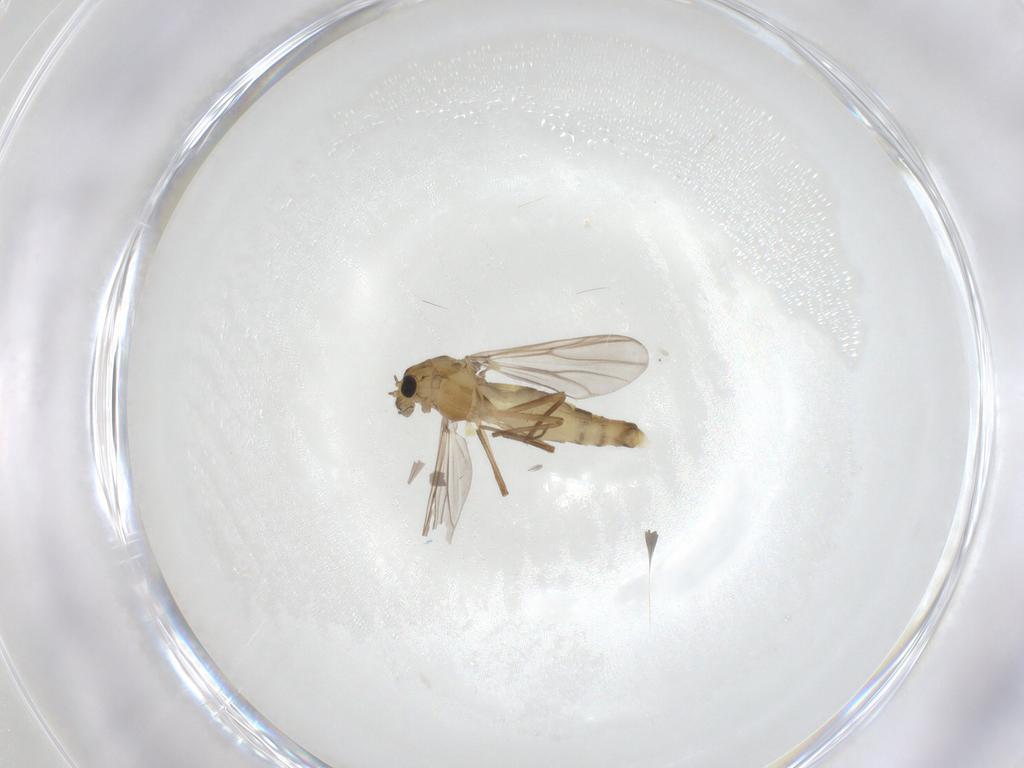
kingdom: Animalia
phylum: Arthropoda
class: Insecta
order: Diptera
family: Chironomidae
